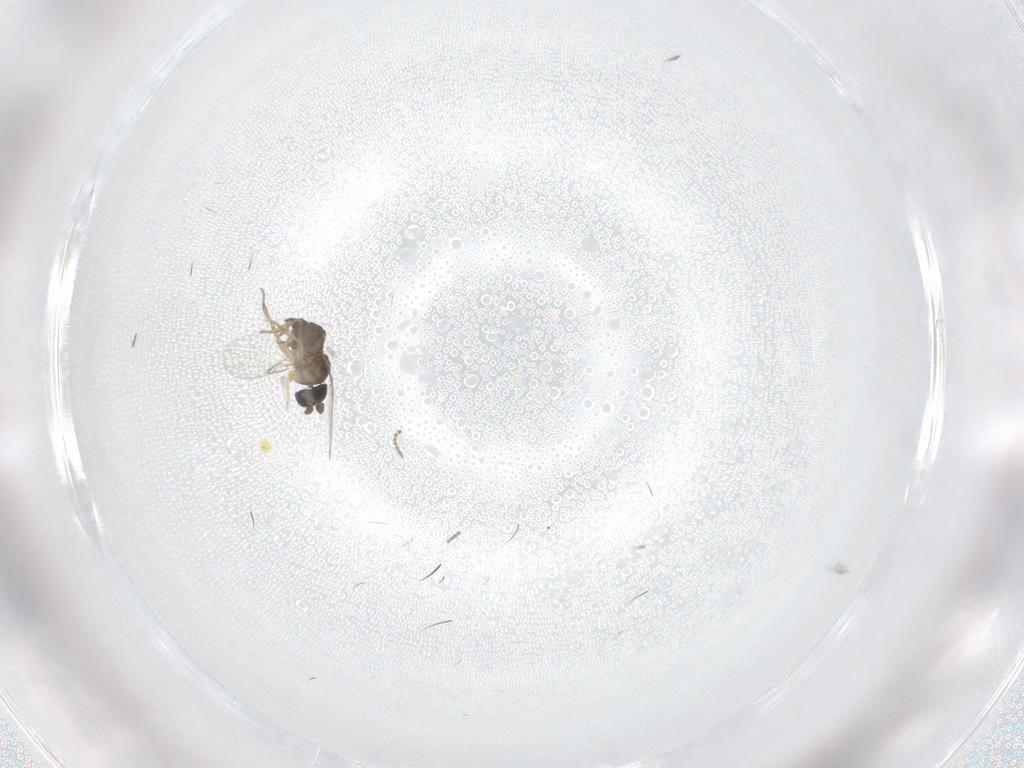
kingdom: Animalia
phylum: Arthropoda
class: Insecta
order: Diptera
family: Phoridae
